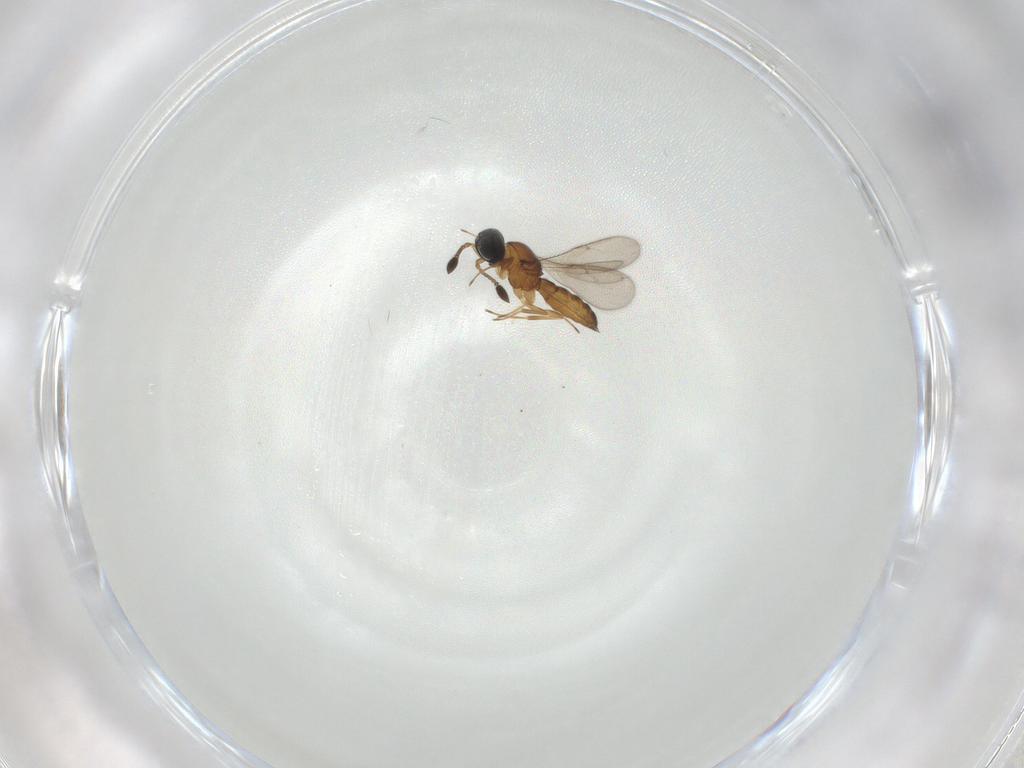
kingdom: Animalia
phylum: Arthropoda
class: Insecta
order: Hymenoptera
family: Scelionidae
